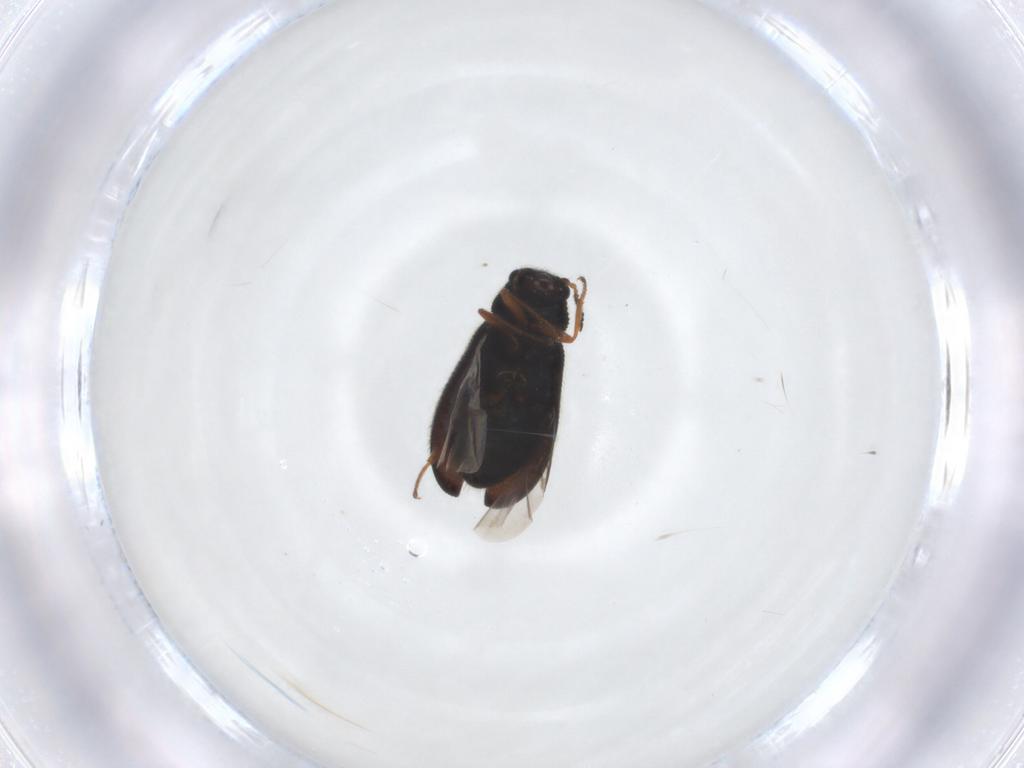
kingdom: Animalia
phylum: Arthropoda
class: Insecta
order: Coleoptera
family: Melyridae
